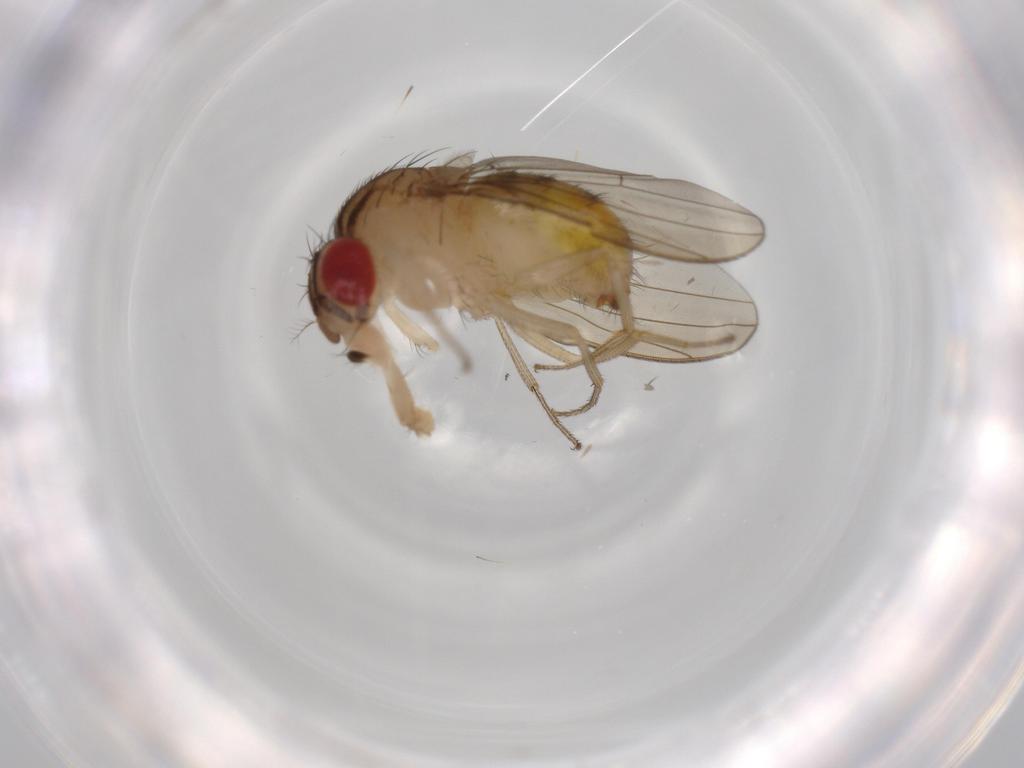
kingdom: Animalia
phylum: Arthropoda
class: Insecta
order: Diptera
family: Drosophilidae
